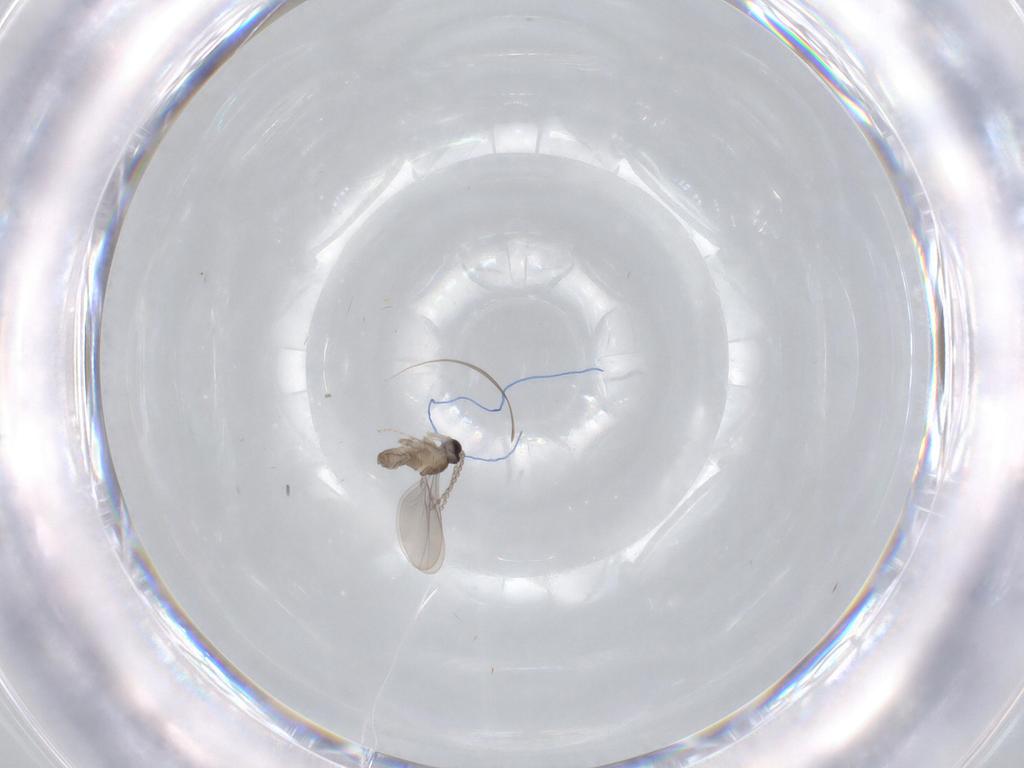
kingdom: Animalia
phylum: Arthropoda
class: Insecta
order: Diptera
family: Cecidomyiidae
